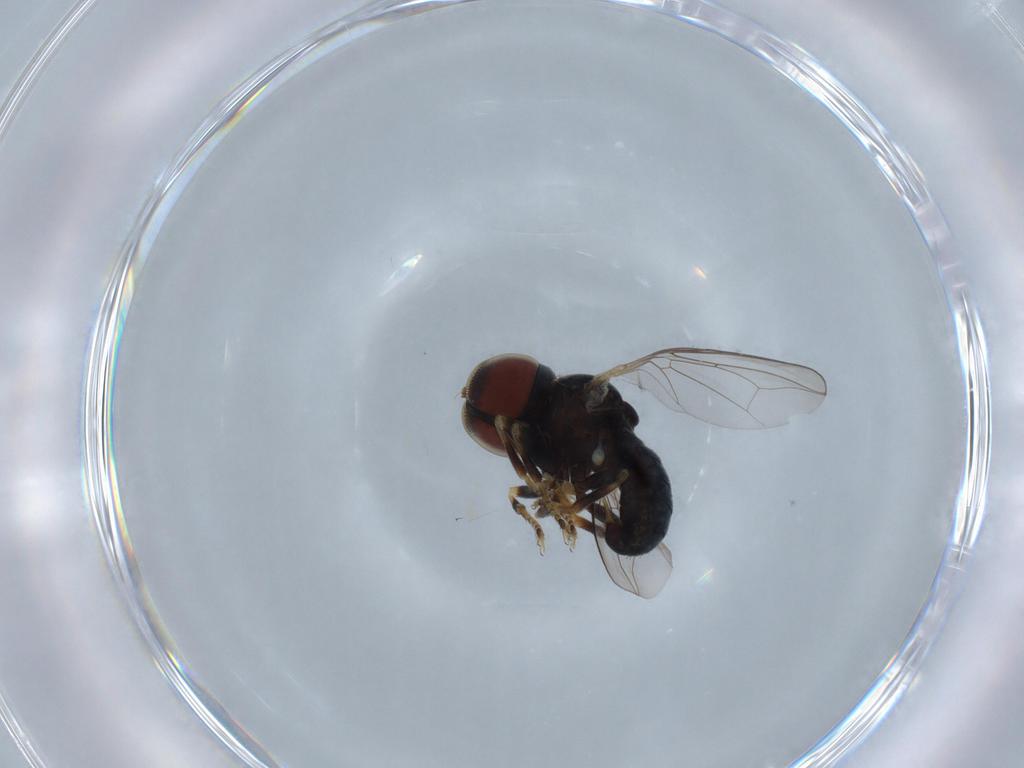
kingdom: Animalia
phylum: Arthropoda
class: Insecta
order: Diptera
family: Pipunculidae
